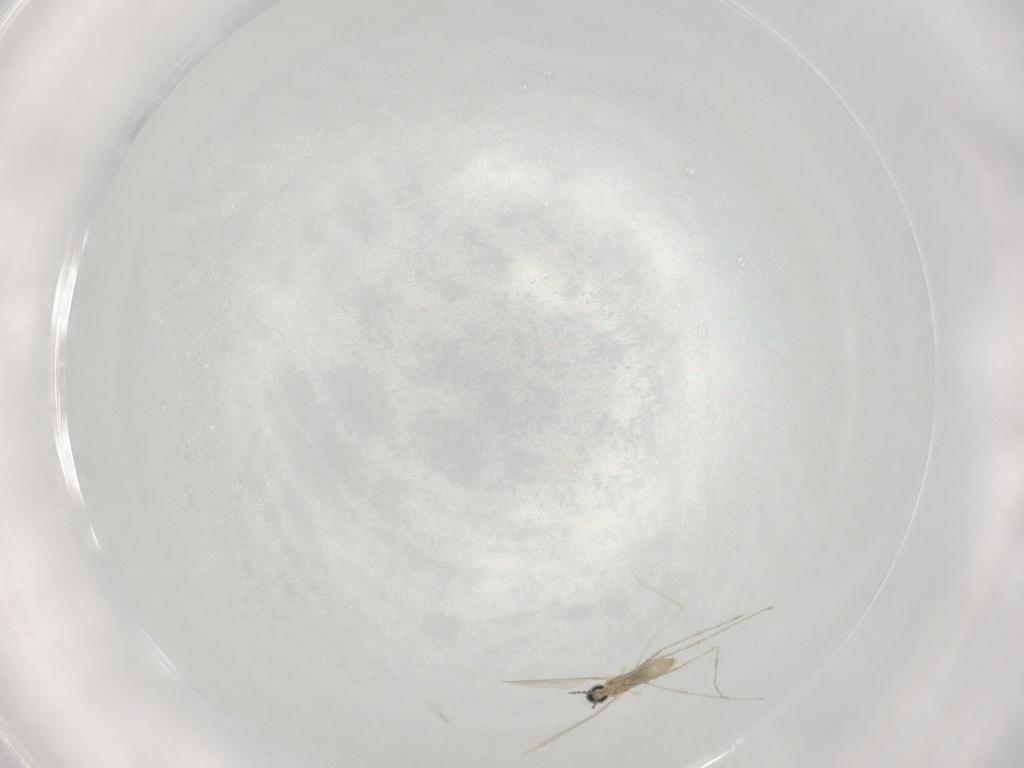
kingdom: Animalia
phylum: Arthropoda
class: Insecta
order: Diptera
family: Cecidomyiidae
